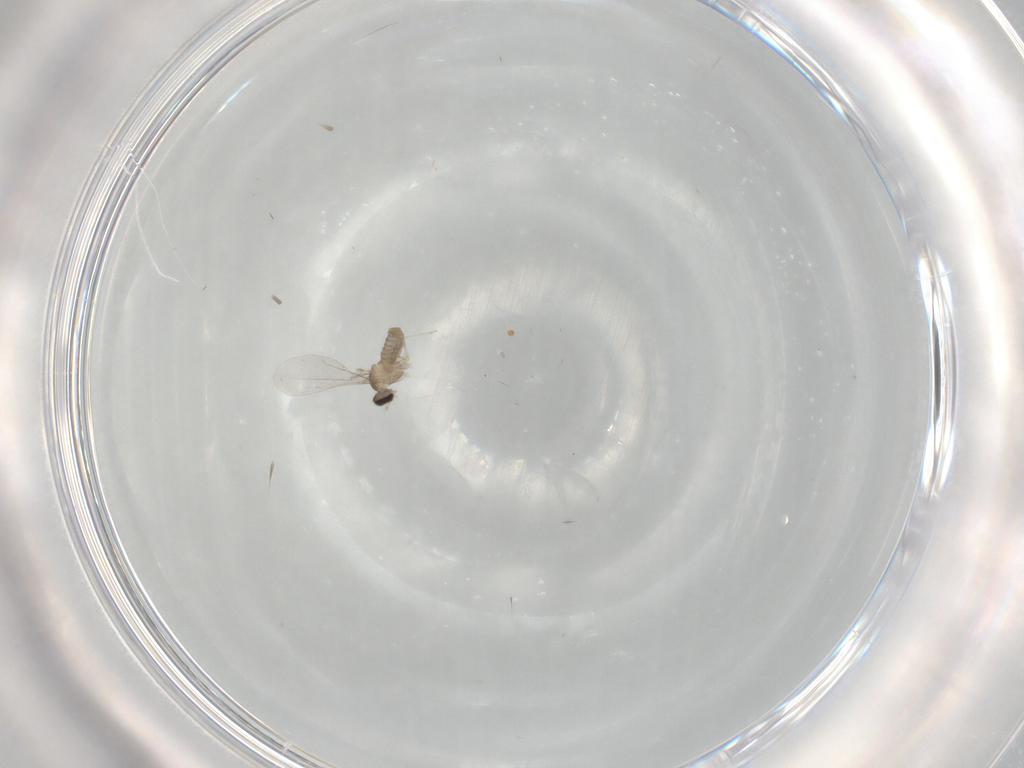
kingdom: Animalia
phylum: Arthropoda
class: Insecta
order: Diptera
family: Cecidomyiidae
